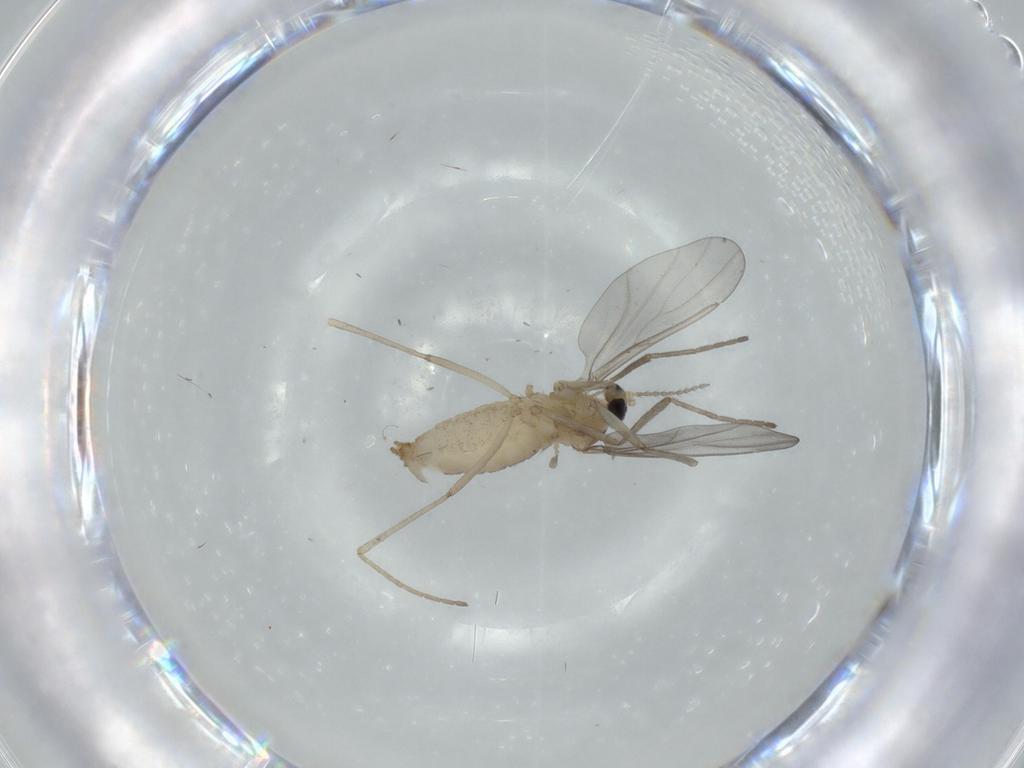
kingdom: Animalia
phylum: Arthropoda
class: Insecta
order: Diptera
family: Cecidomyiidae
